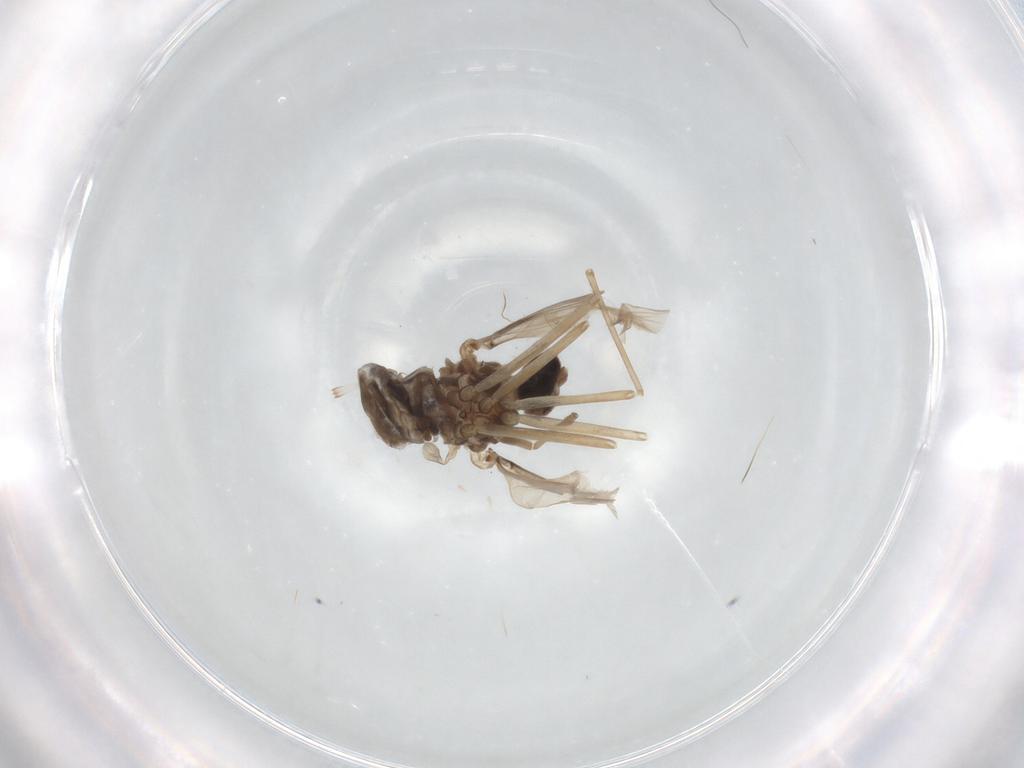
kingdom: Animalia
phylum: Arthropoda
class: Insecta
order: Diptera
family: Cecidomyiidae
